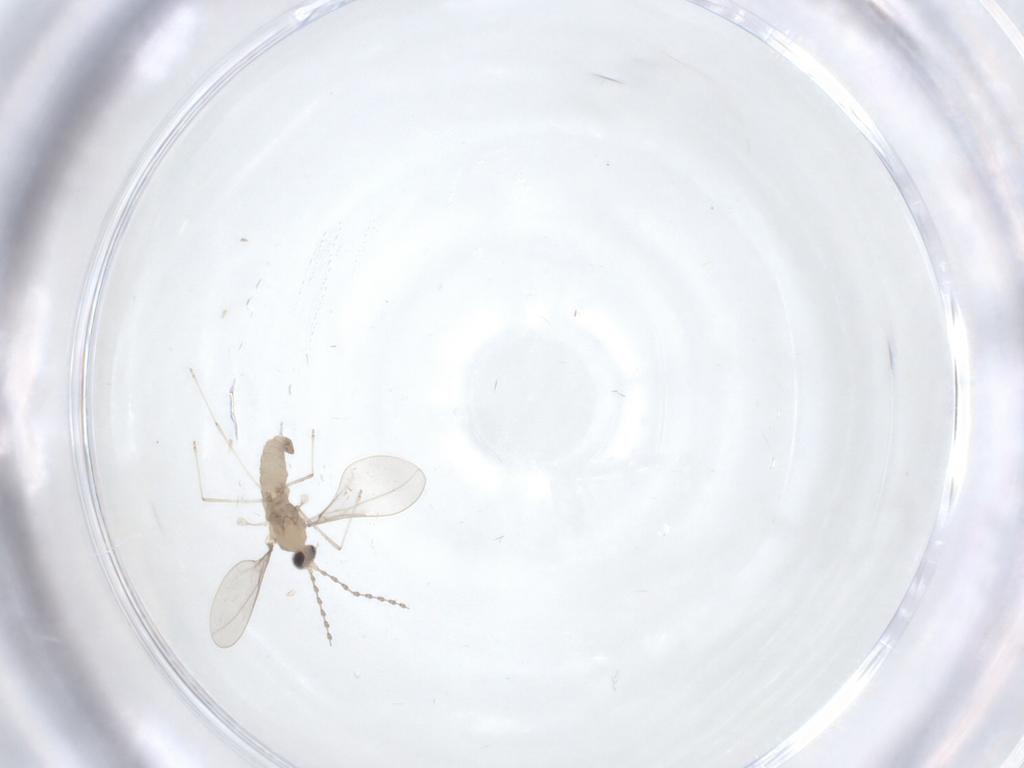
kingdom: Animalia
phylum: Arthropoda
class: Insecta
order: Diptera
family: Cecidomyiidae
